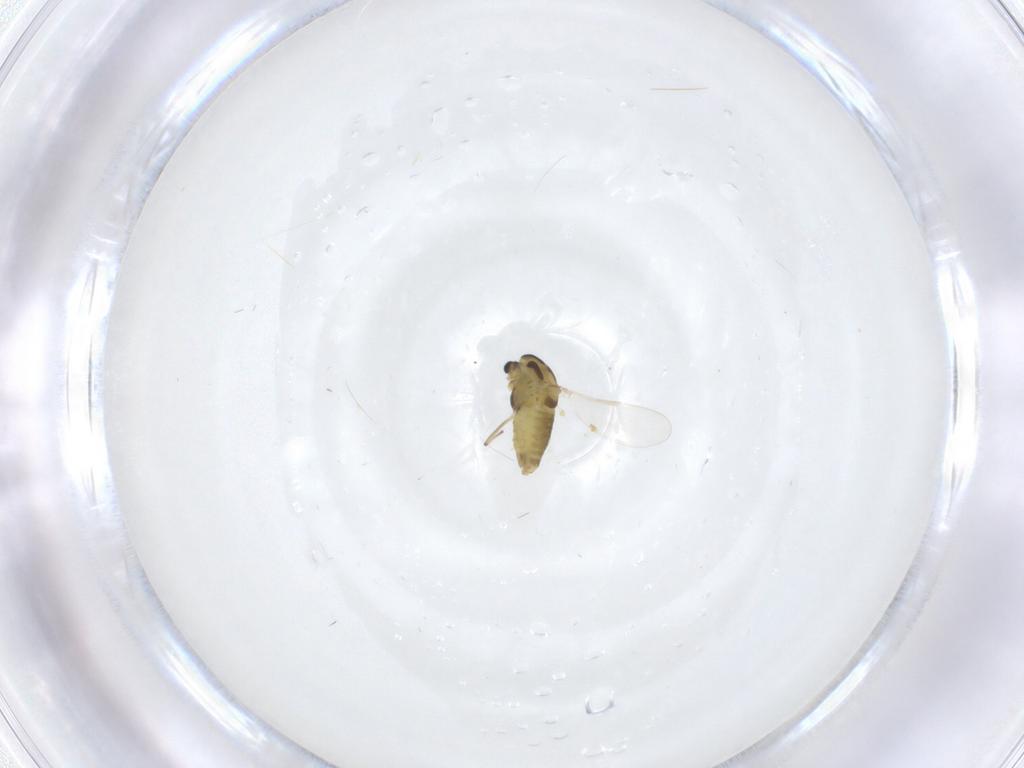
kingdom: Animalia
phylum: Arthropoda
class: Insecta
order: Diptera
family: Chironomidae
